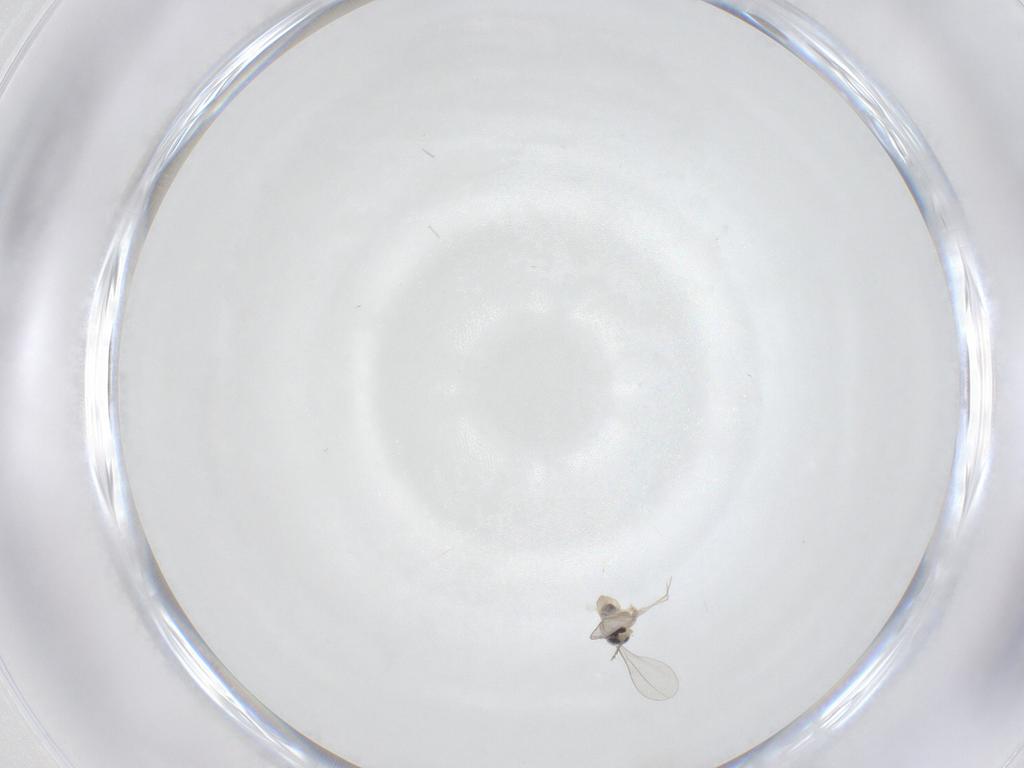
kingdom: Animalia
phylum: Arthropoda
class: Insecta
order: Diptera
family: Cecidomyiidae
